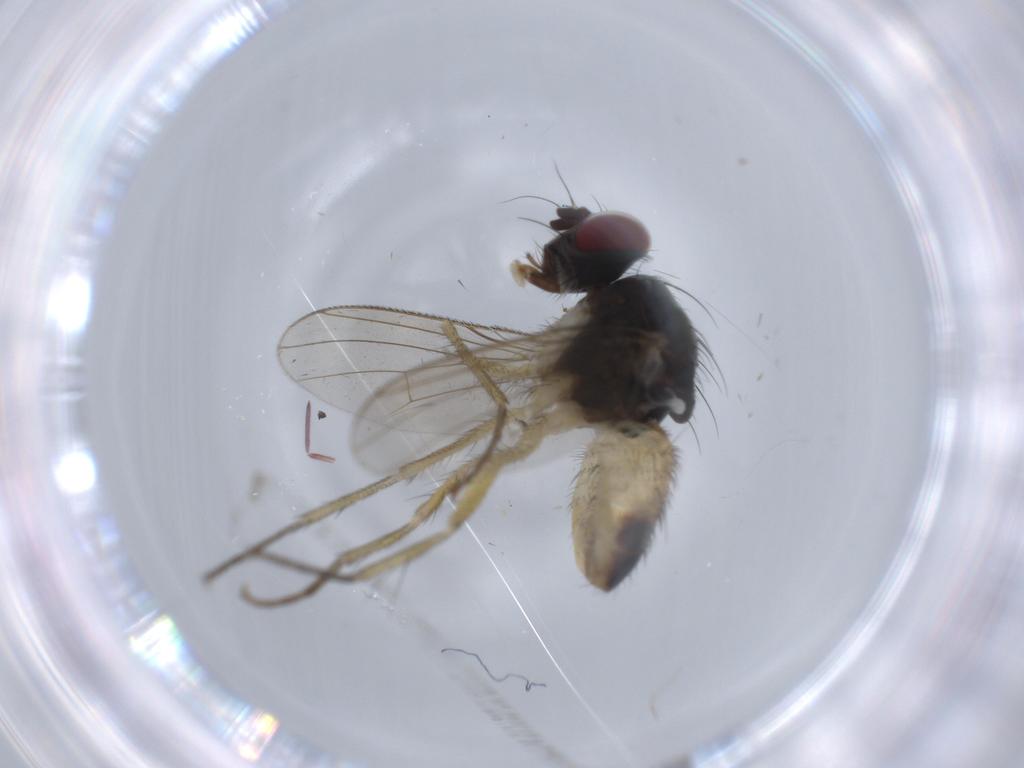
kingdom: Animalia
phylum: Arthropoda
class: Insecta
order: Diptera
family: Muscidae
